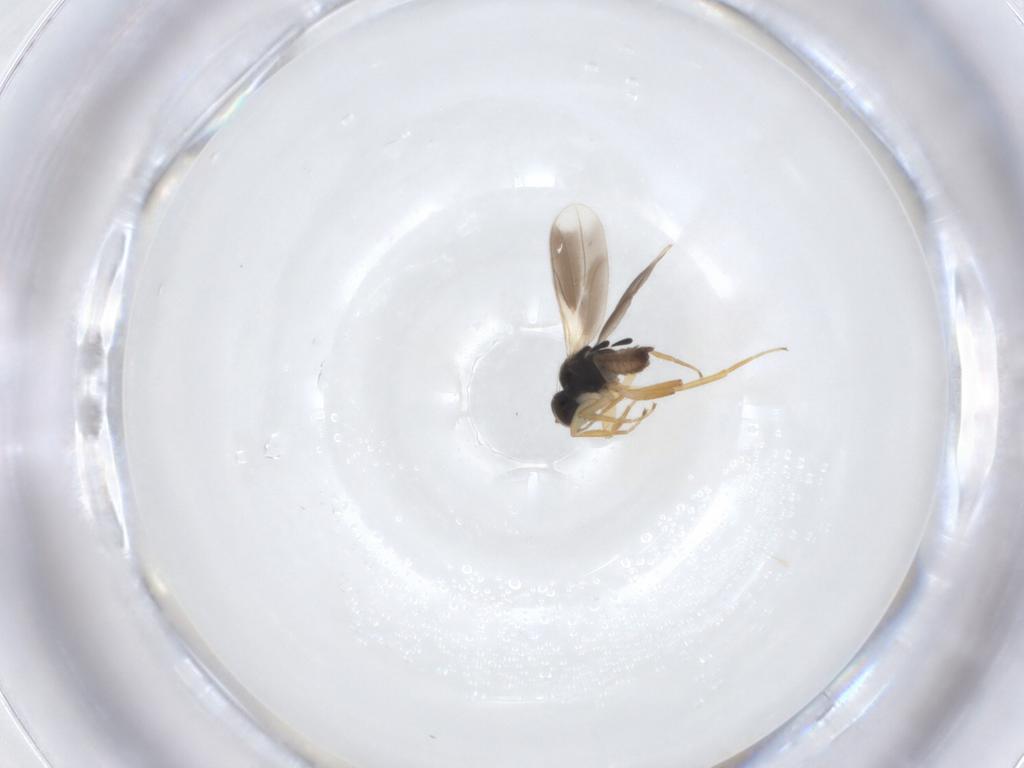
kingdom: Animalia
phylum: Arthropoda
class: Insecta
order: Diptera
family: Hybotidae
